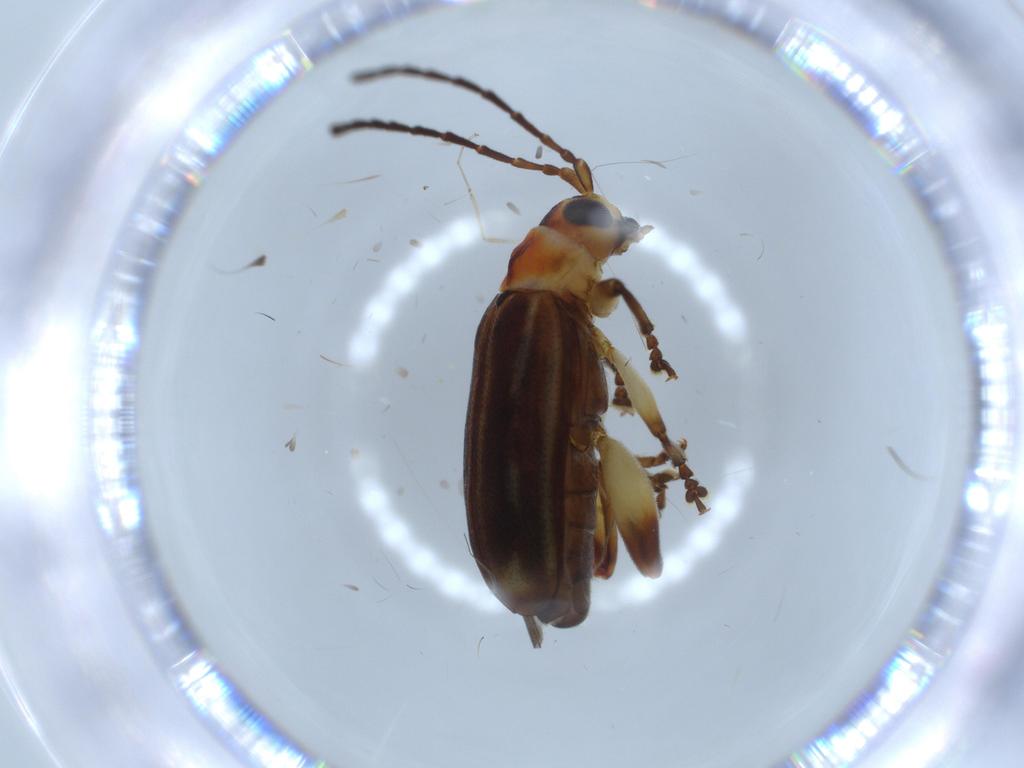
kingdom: Animalia
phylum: Arthropoda
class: Insecta
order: Coleoptera
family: Chrysomelidae
